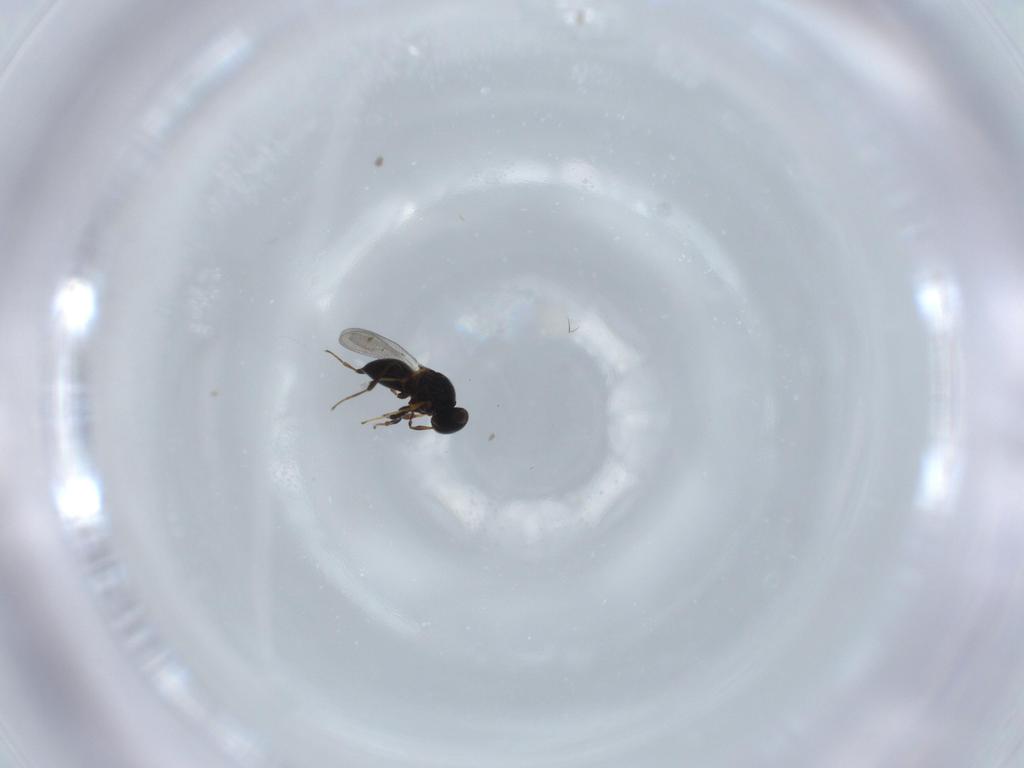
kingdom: Animalia
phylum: Arthropoda
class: Insecta
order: Hymenoptera
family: Platygastridae
